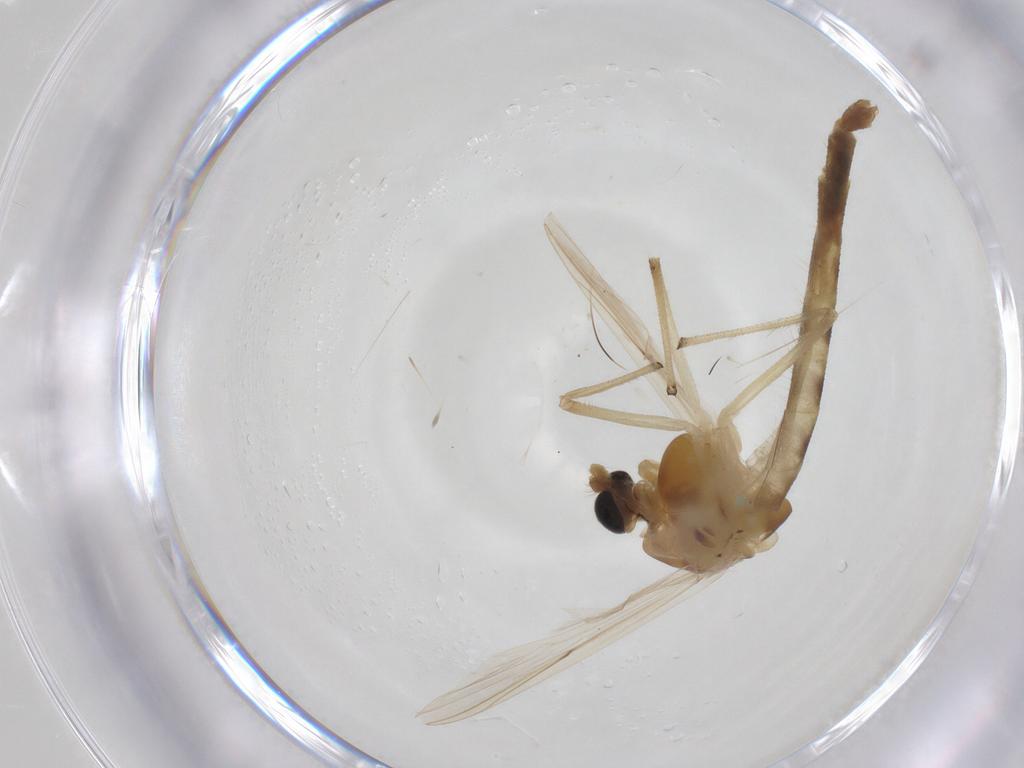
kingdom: Animalia
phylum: Arthropoda
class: Insecta
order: Diptera
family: Chironomidae
